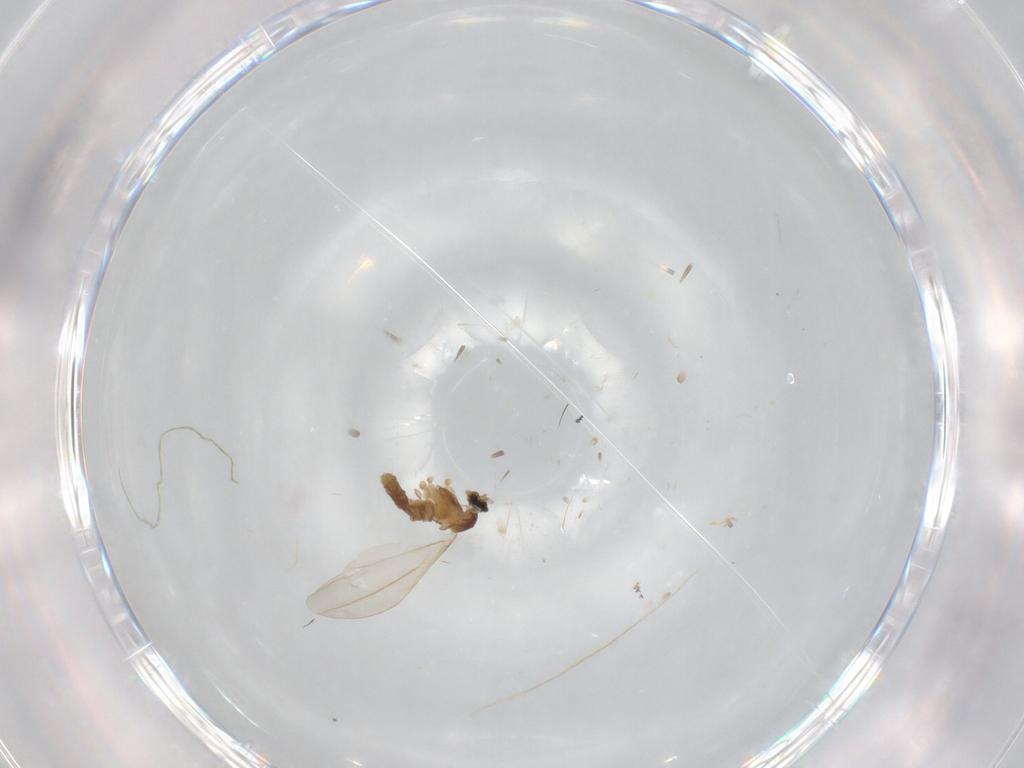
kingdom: Animalia
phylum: Arthropoda
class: Insecta
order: Diptera
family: Cecidomyiidae
